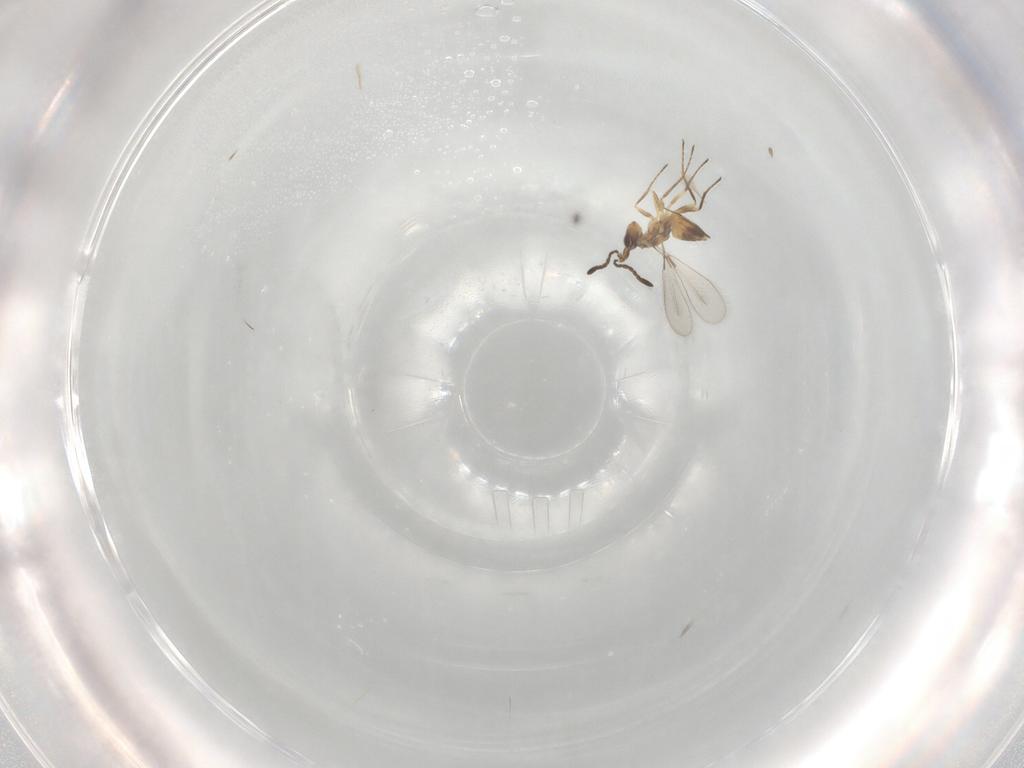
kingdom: Animalia
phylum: Arthropoda
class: Insecta
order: Hymenoptera
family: Mymaridae
